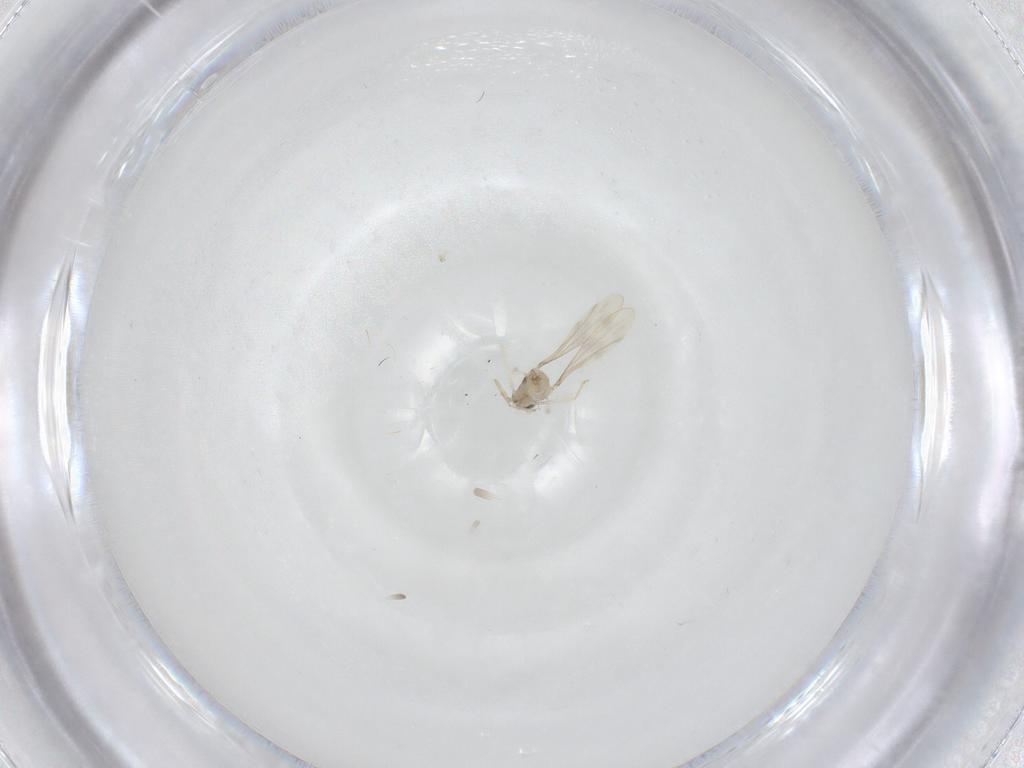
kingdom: Animalia
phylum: Arthropoda
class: Insecta
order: Diptera
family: Cecidomyiidae
